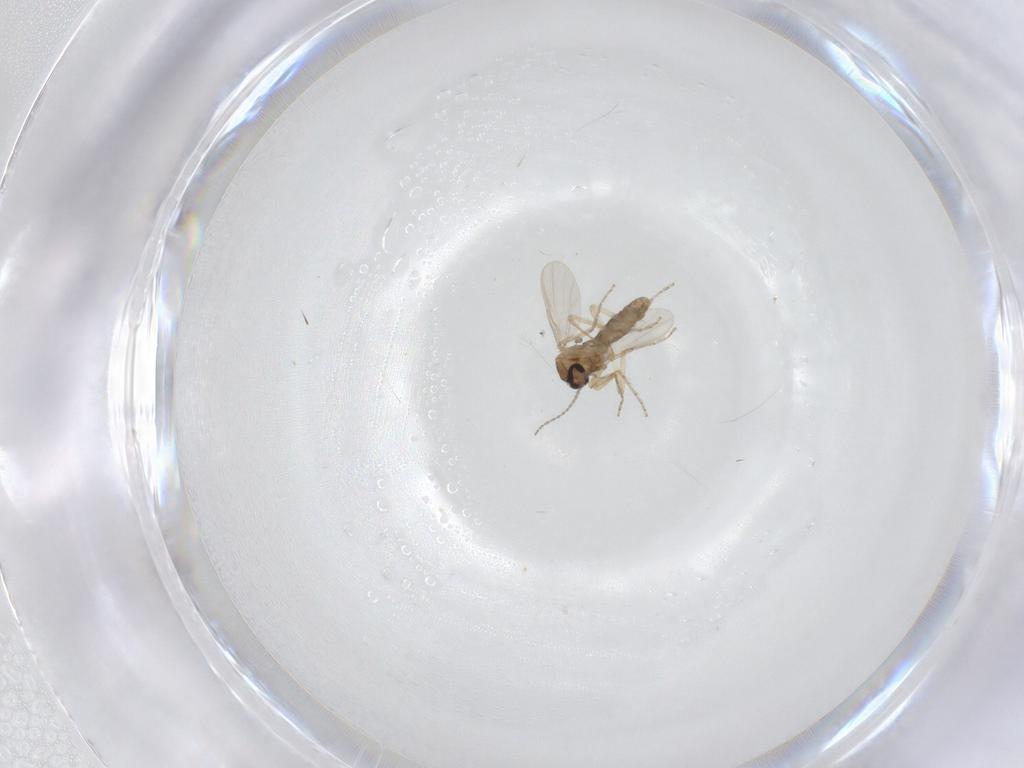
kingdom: Animalia
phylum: Arthropoda
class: Insecta
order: Diptera
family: Ceratopogonidae
